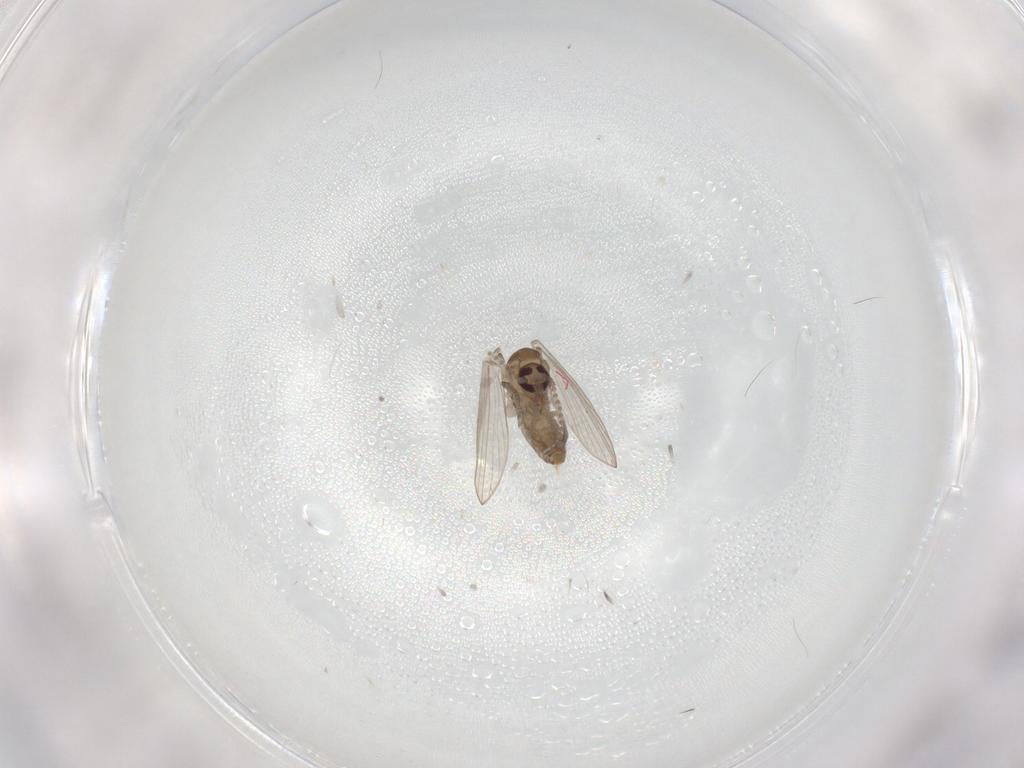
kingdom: Animalia
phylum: Arthropoda
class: Insecta
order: Diptera
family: Psychodidae
